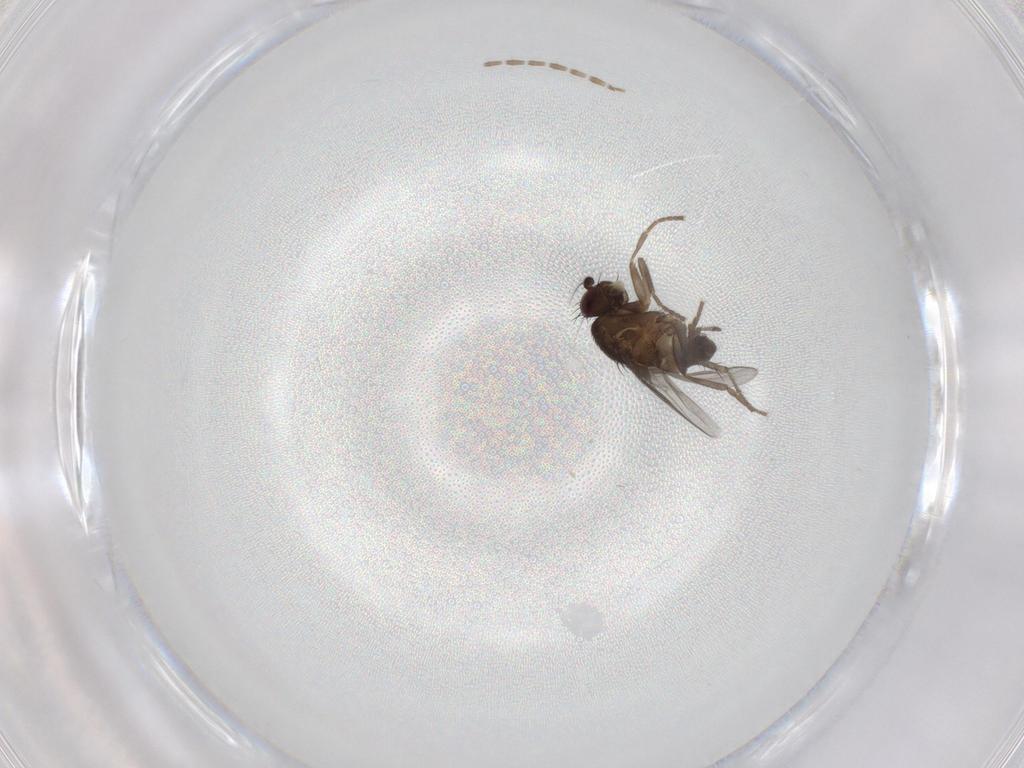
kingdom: Animalia
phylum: Arthropoda
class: Insecta
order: Diptera
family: Sphaeroceridae
